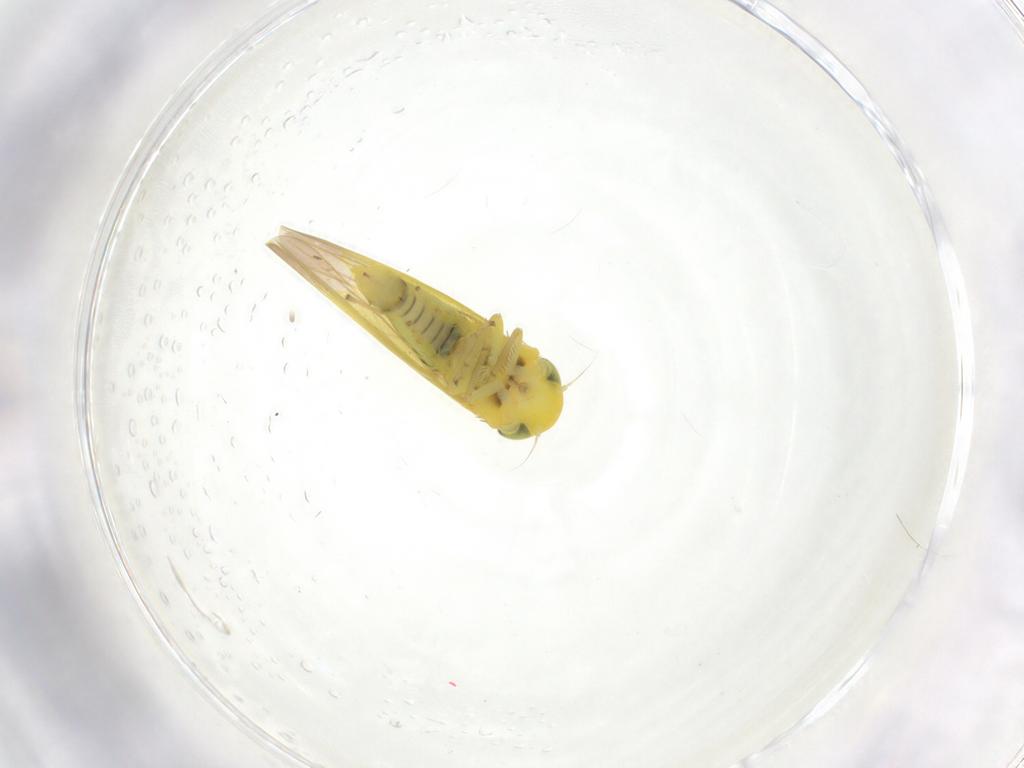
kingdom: Animalia
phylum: Arthropoda
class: Insecta
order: Hemiptera
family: Cicadellidae
